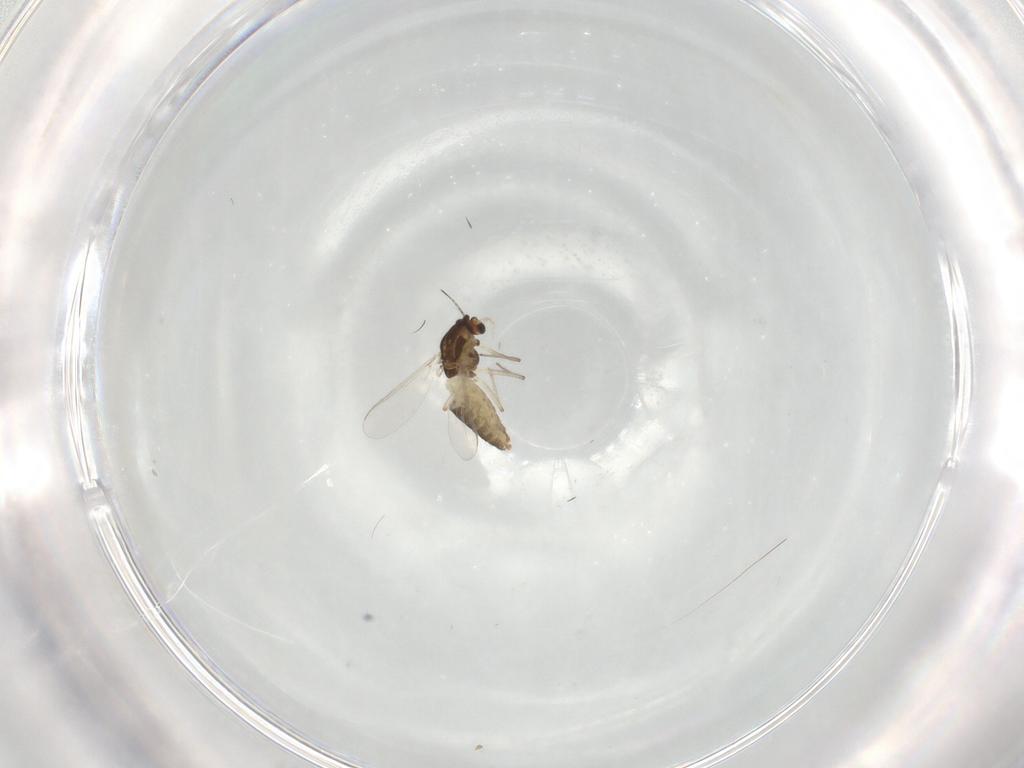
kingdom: Animalia
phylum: Arthropoda
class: Insecta
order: Diptera
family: Chironomidae
